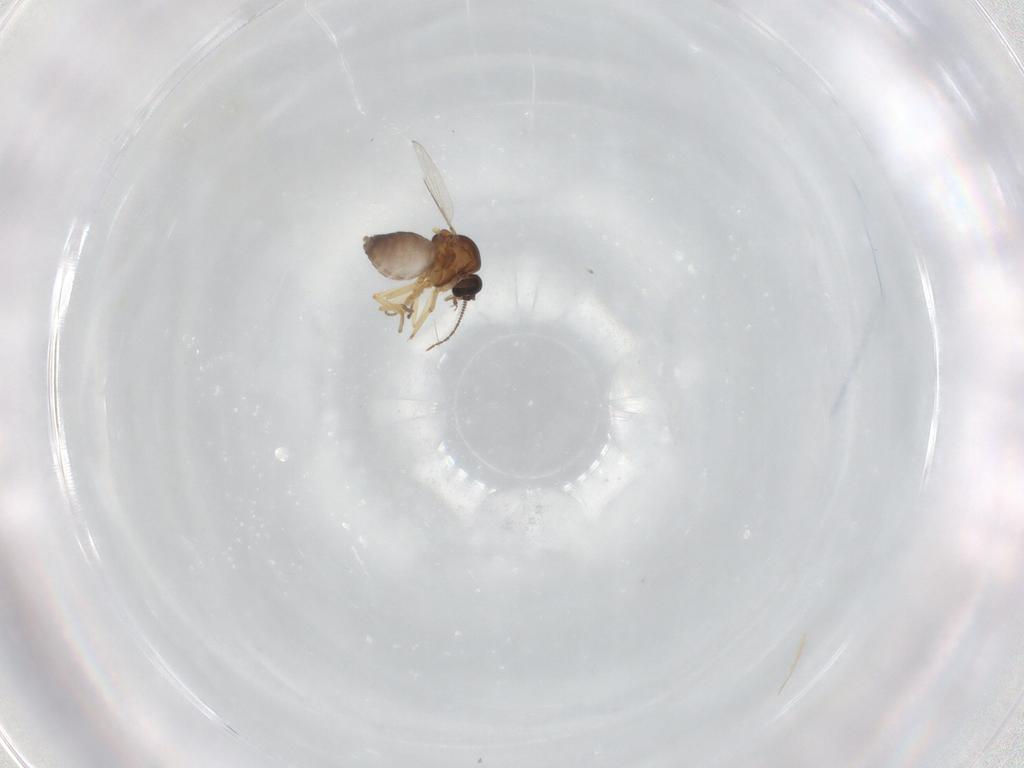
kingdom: Animalia
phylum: Arthropoda
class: Insecta
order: Diptera
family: Ceratopogonidae
